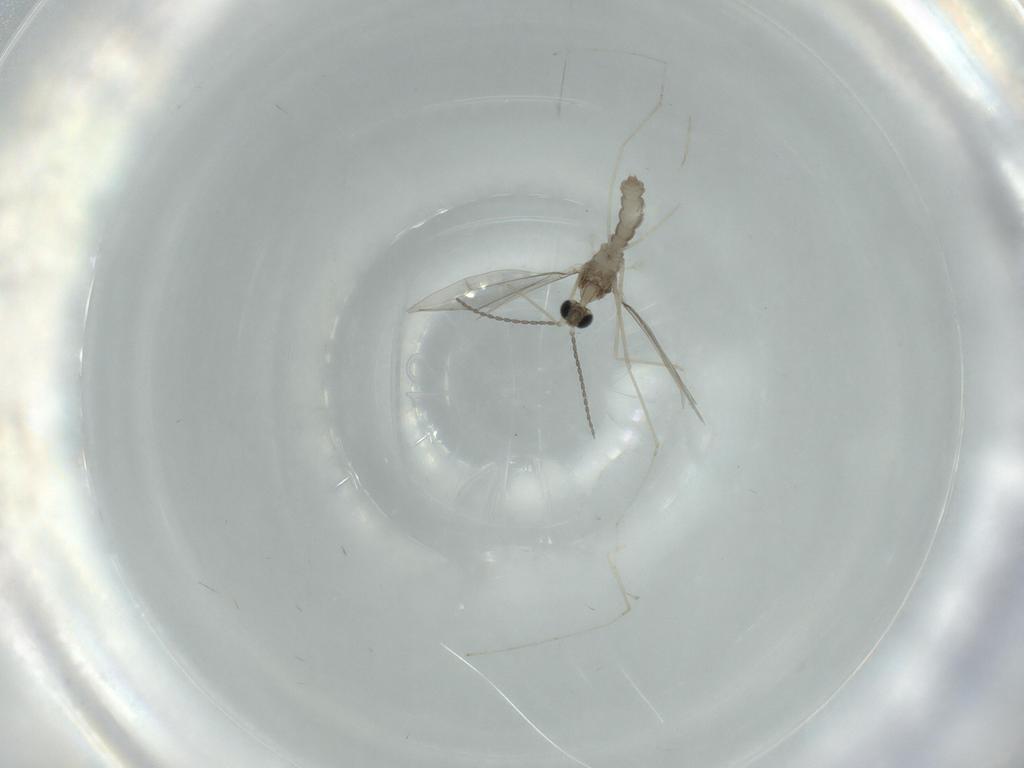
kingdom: Animalia
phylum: Arthropoda
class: Insecta
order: Diptera
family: Cecidomyiidae
